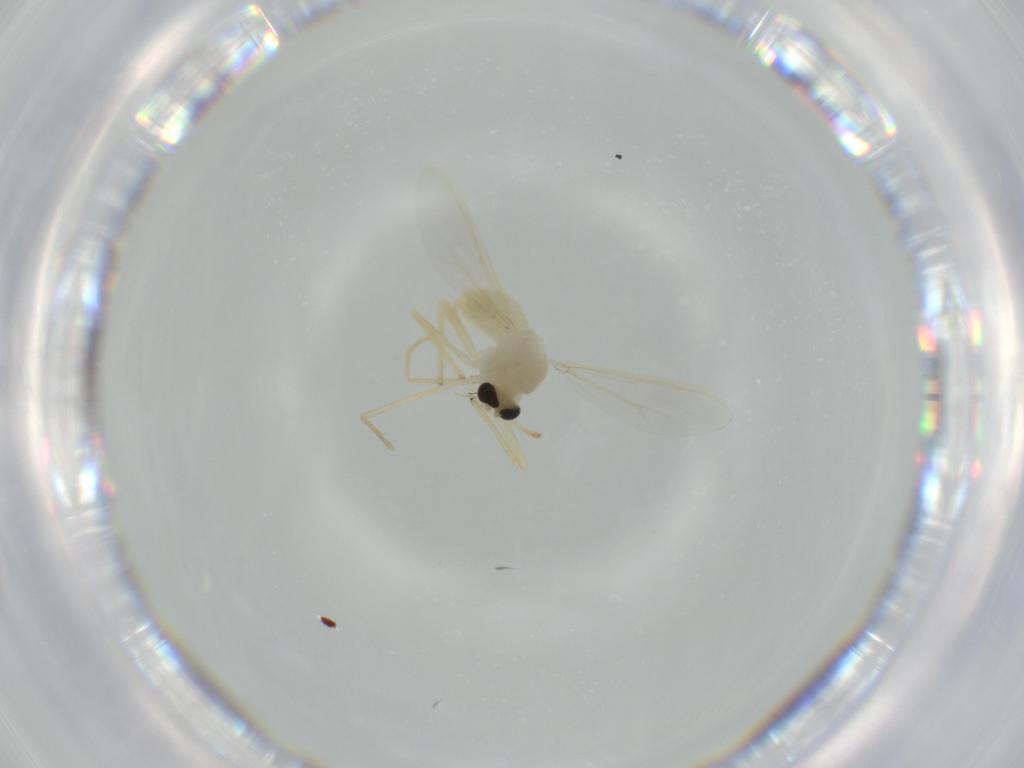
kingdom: Animalia
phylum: Arthropoda
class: Insecta
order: Diptera
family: Chironomidae
